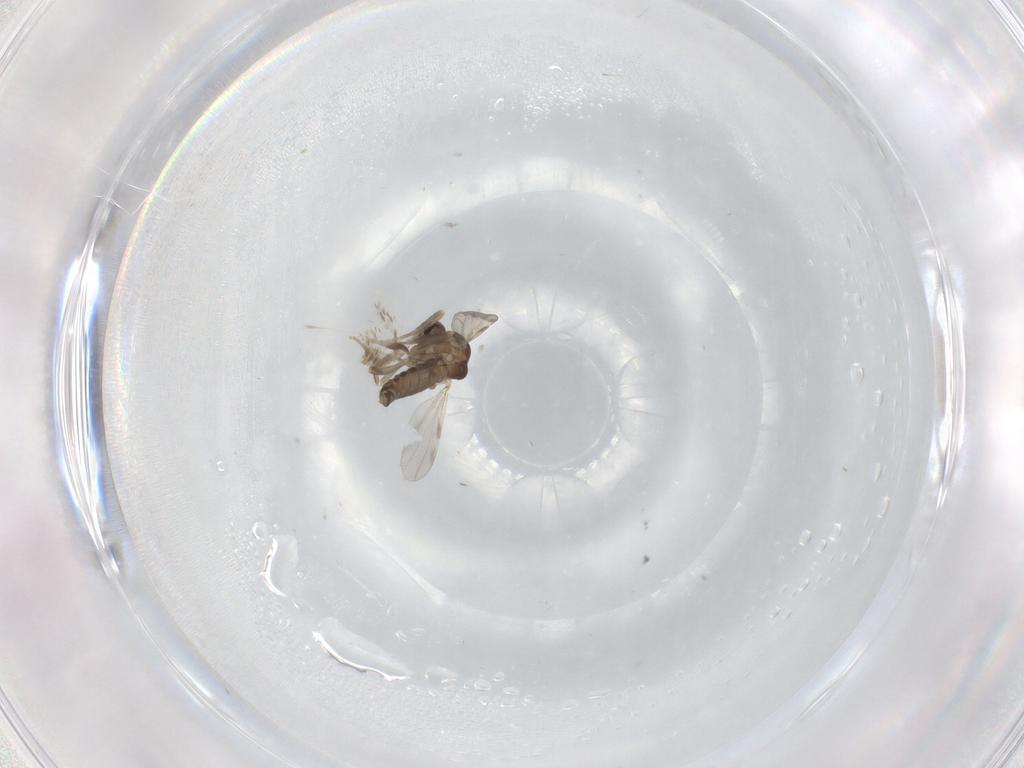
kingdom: Animalia
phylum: Arthropoda
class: Insecta
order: Diptera
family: Ceratopogonidae
